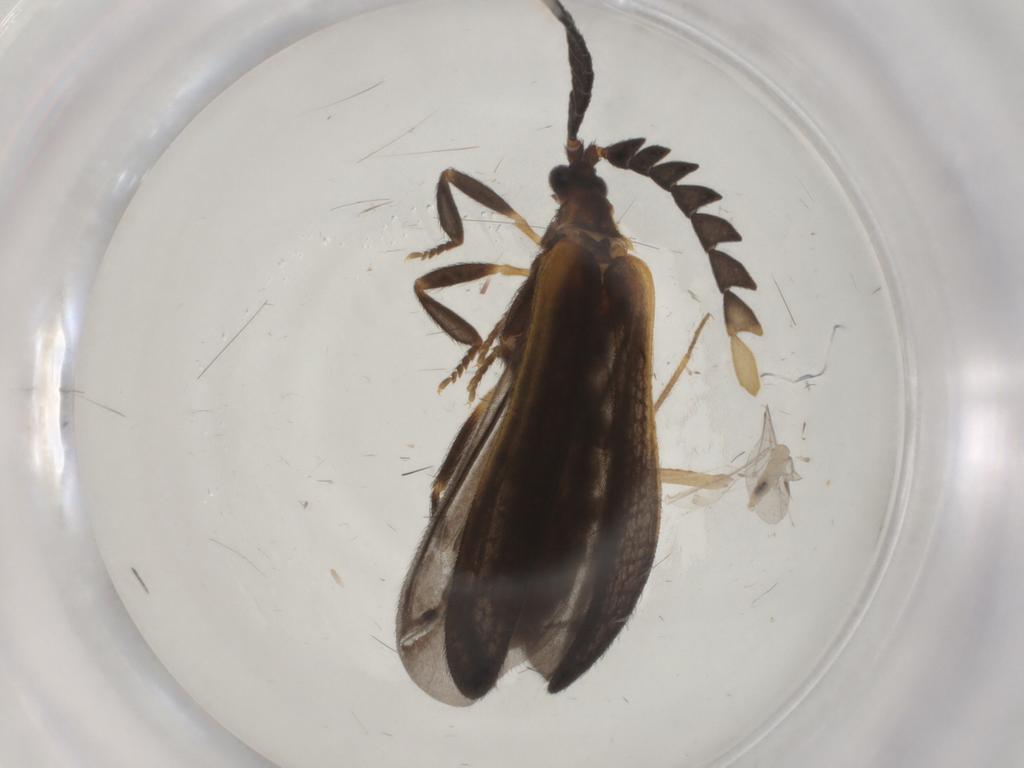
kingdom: Animalia
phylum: Arthropoda
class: Insecta
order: Coleoptera
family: Lycidae
